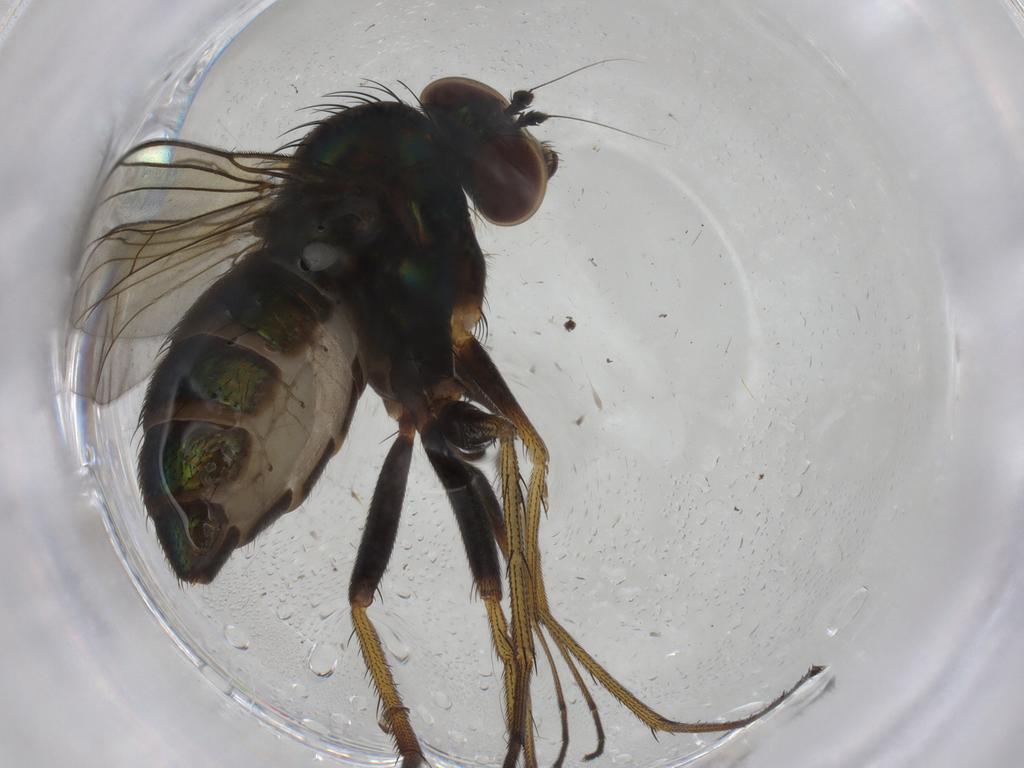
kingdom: Animalia
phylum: Arthropoda
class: Insecta
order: Diptera
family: Dolichopodidae
